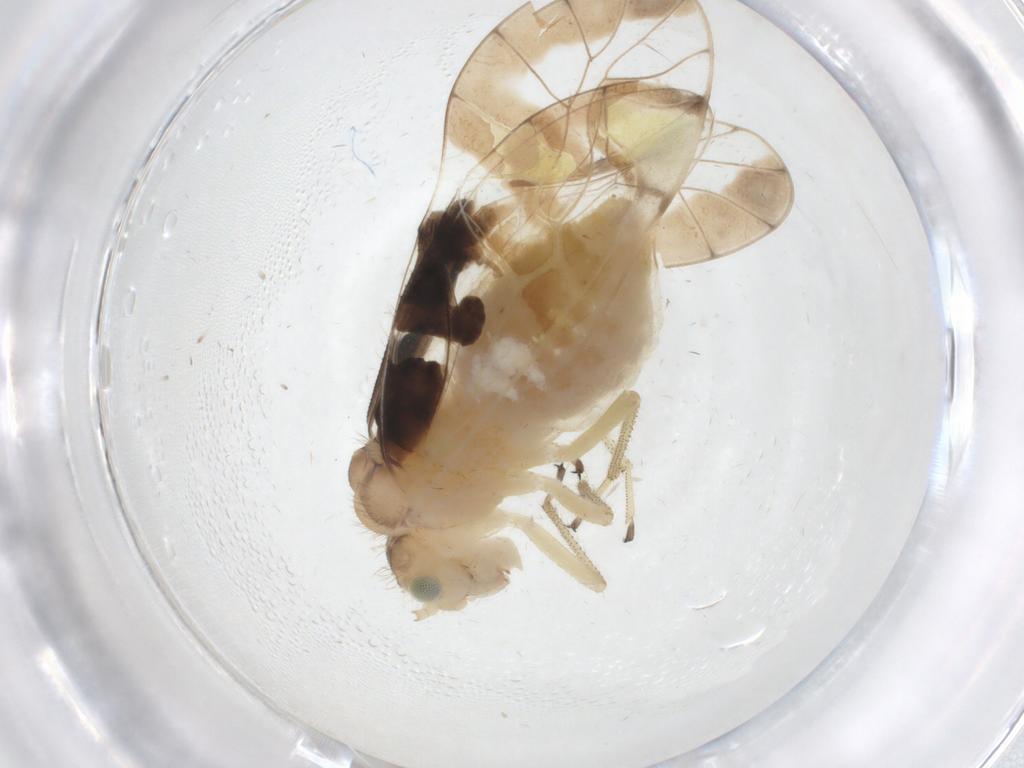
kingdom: Animalia
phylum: Arthropoda
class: Insecta
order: Psocodea
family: Amphipsocidae
